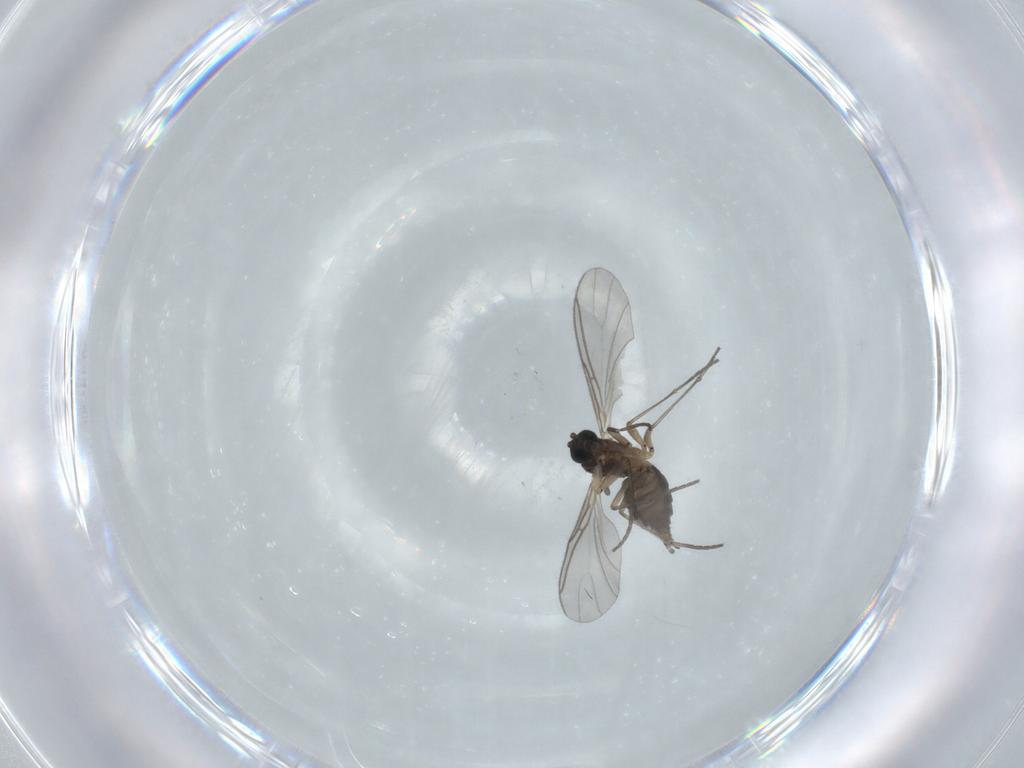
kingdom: Animalia
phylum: Arthropoda
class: Insecta
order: Diptera
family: Sciaridae
